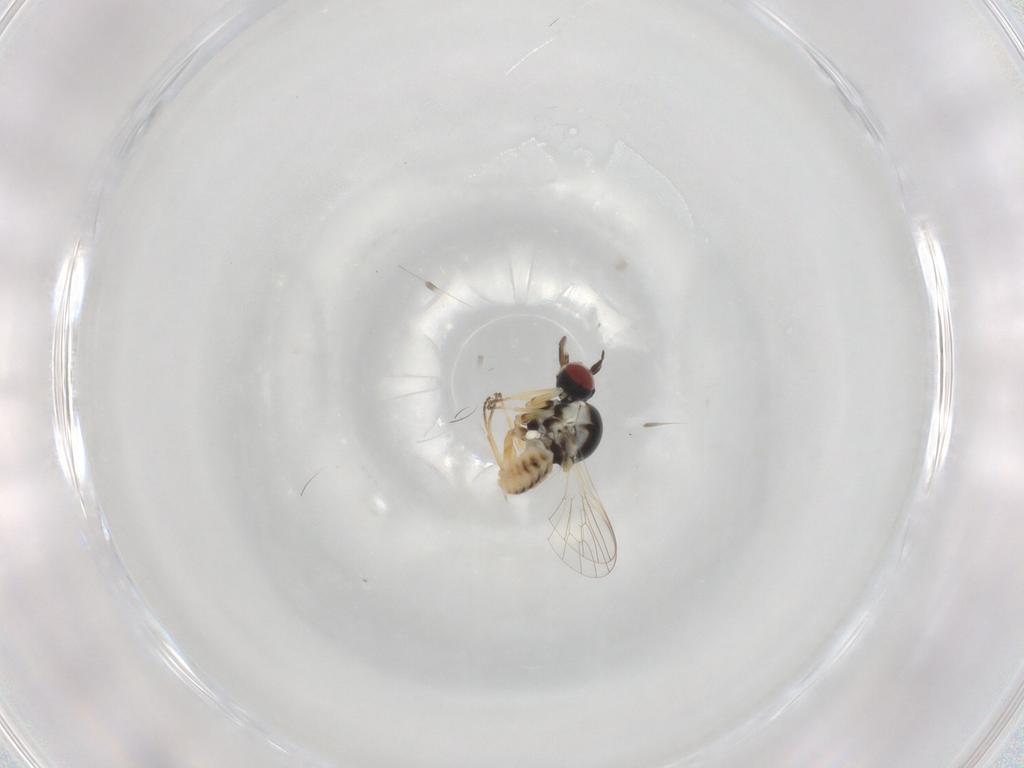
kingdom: Animalia
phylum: Arthropoda
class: Insecta
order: Diptera
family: Bombyliidae
